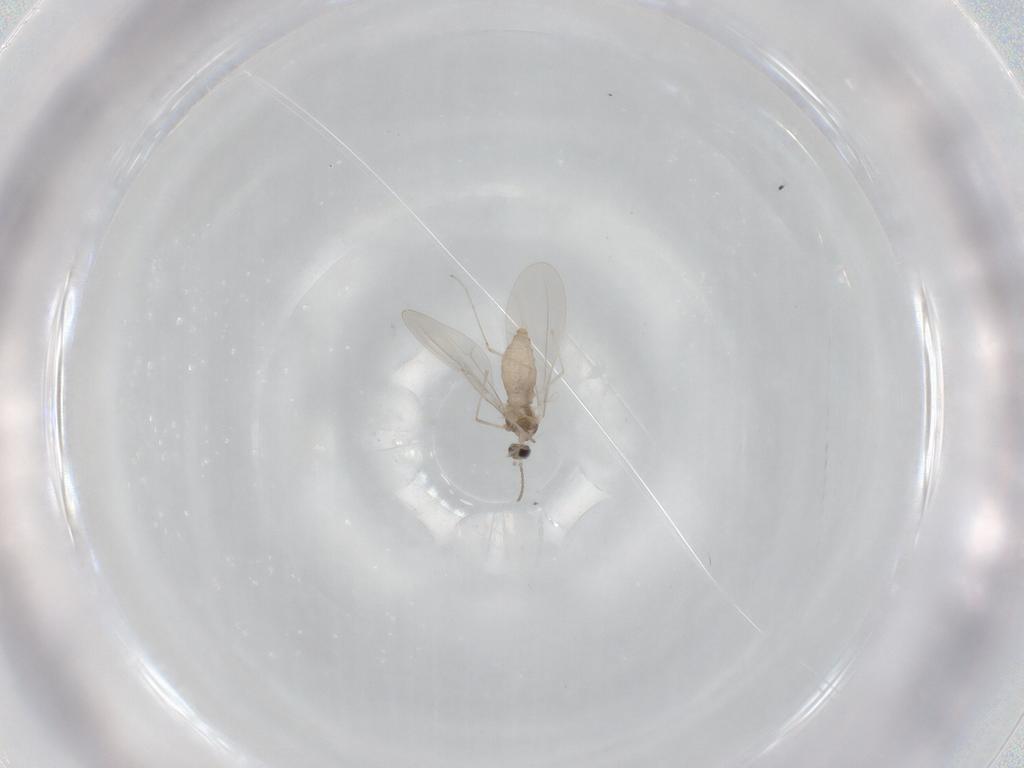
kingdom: Animalia
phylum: Arthropoda
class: Insecta
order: Diptera
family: Cecidomyiidae
